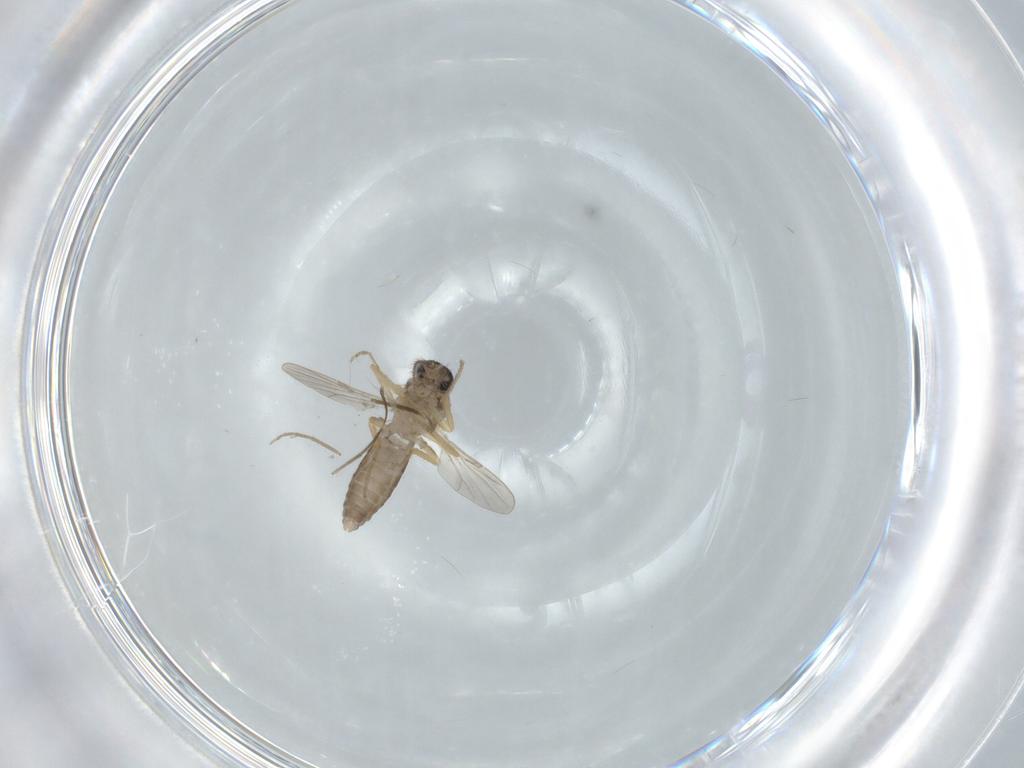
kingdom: Animalia
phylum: Arthropoda
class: Insecta
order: Diptera
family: Ceratopogonidae
